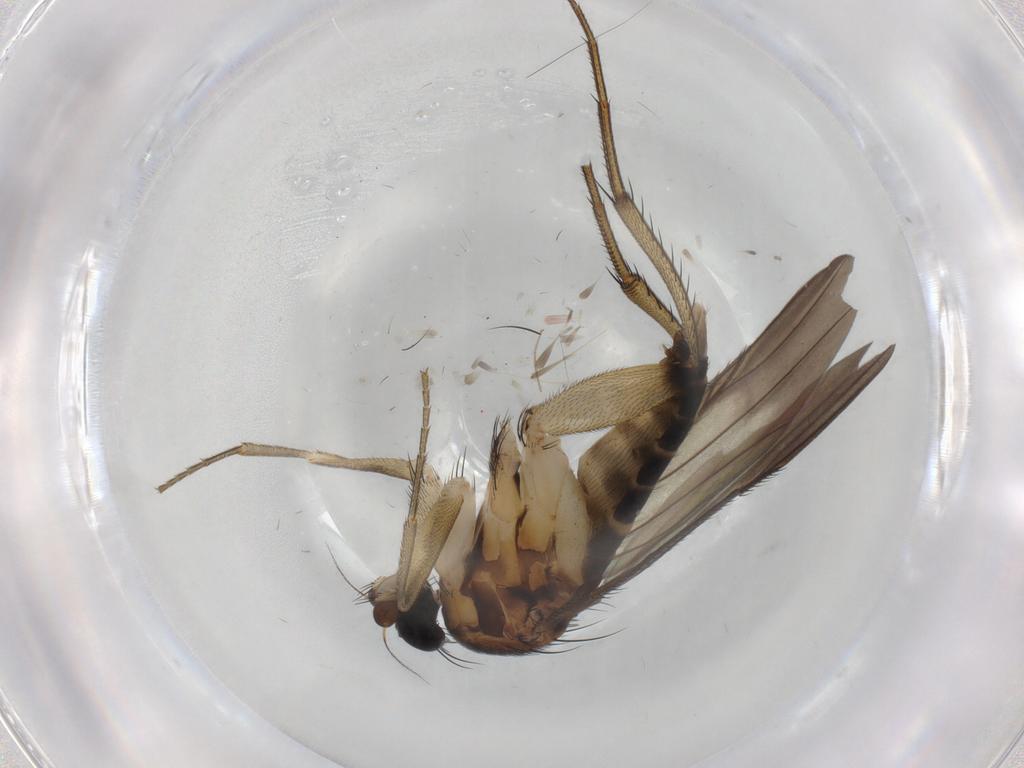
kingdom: Animalia
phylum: Arthropoda
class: Insecta
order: Diptera
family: Chironomidae
